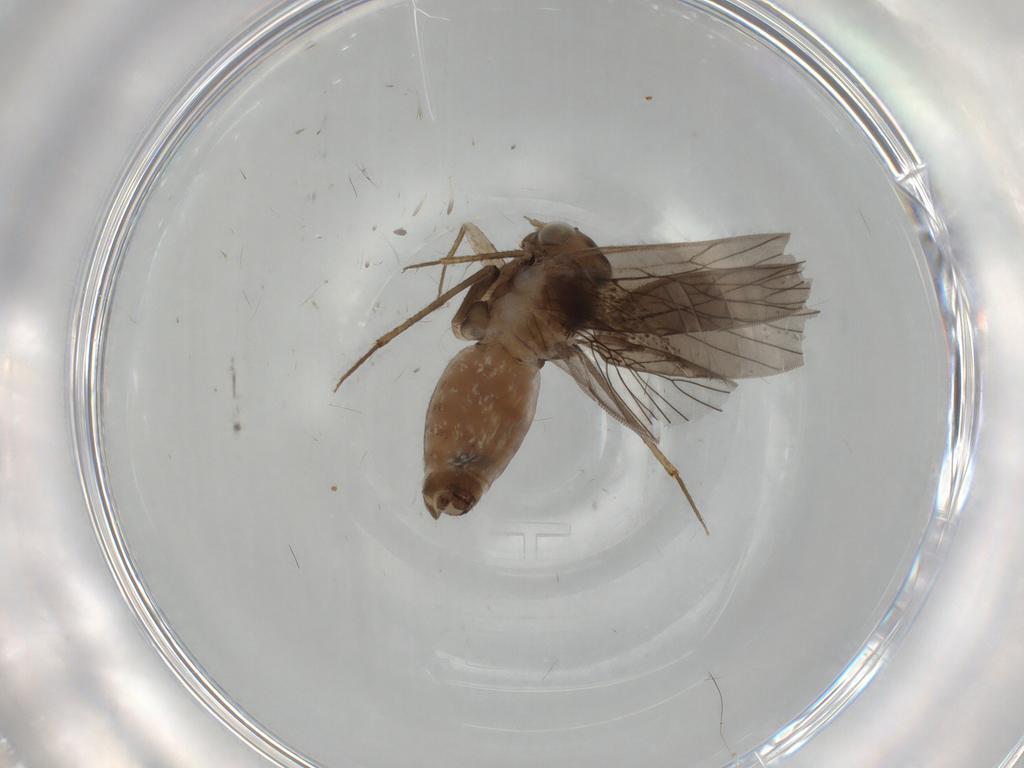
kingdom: Animalia
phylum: Arthropoda
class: Insecta
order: Psocodea
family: Lepidopsocidae
